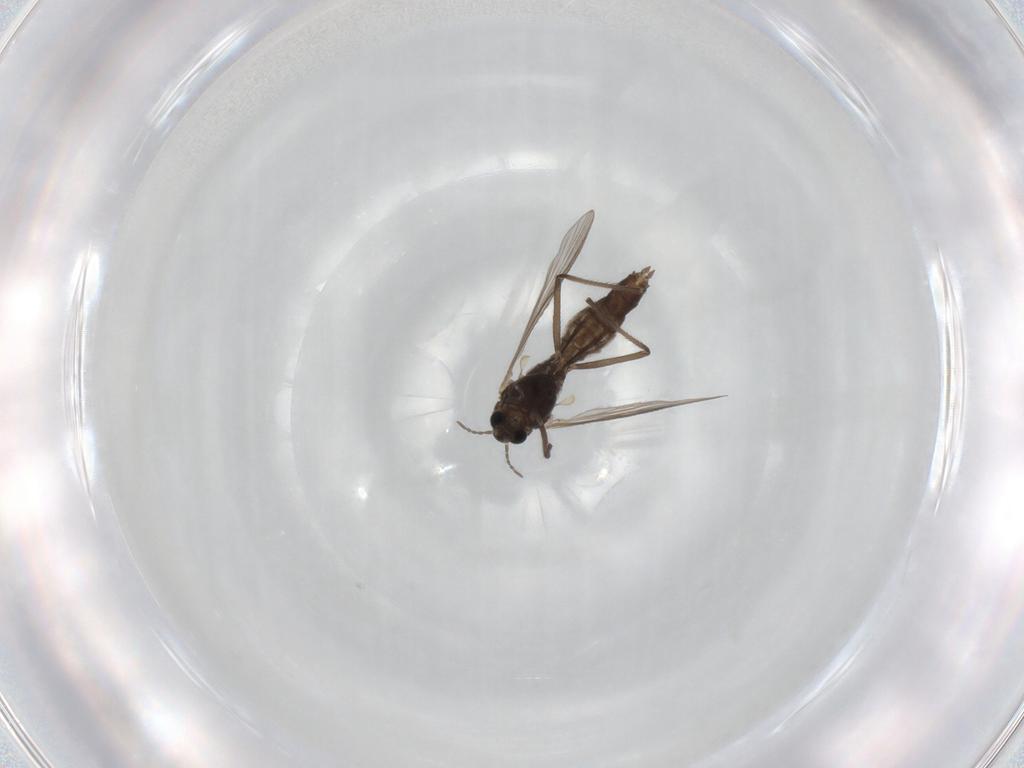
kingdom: Animalia
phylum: Arthropoda
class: Insecta
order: Diptera
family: Chironomidae
